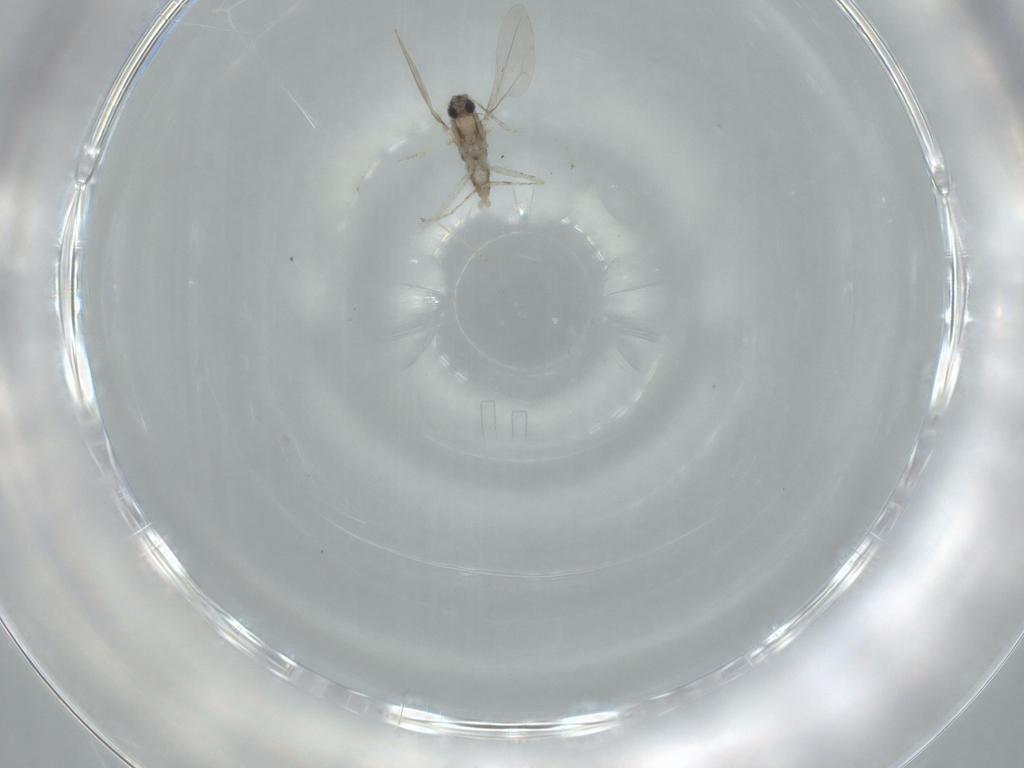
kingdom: Animalia
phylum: Arthropoda
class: Insecta
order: Diptera
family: Cecidomyiidae
